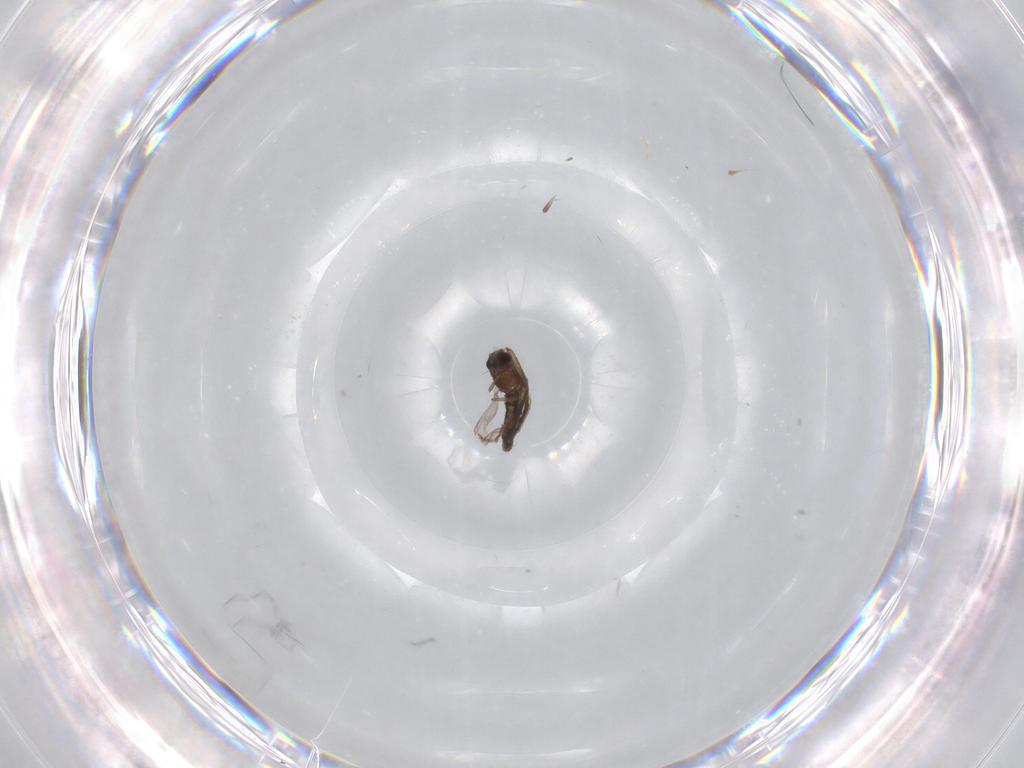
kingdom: Animalia
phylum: Arthropoda
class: Insecta
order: Diptera
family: Chironomidae
